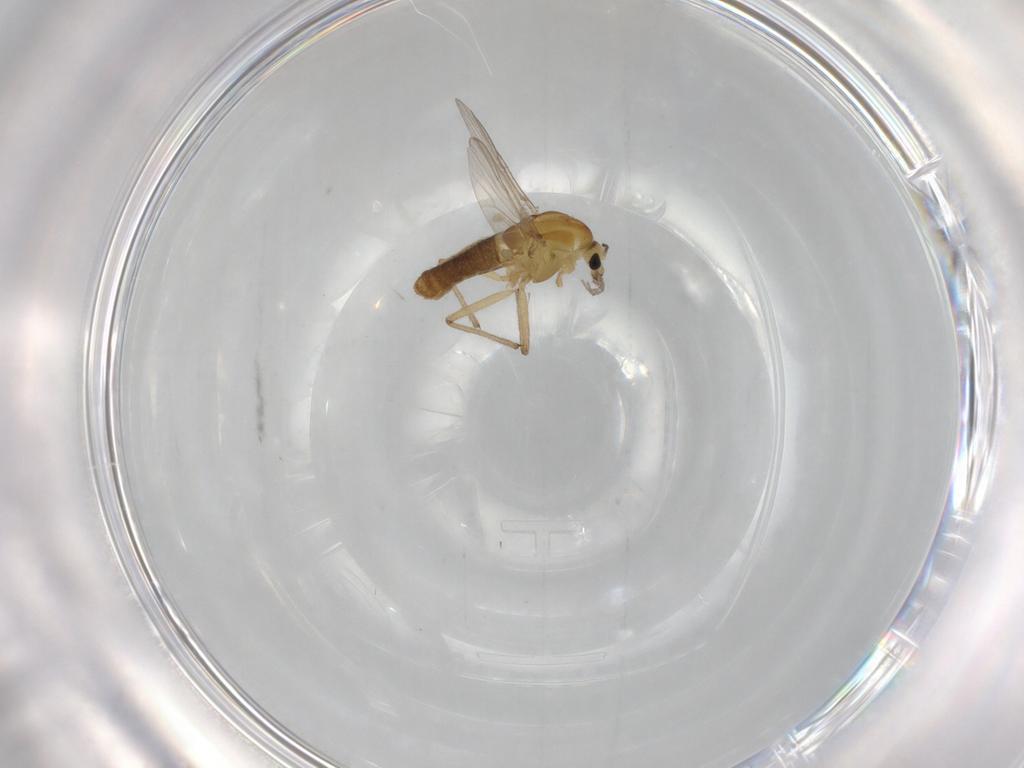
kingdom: Animalia
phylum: Arthropoda
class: Insecta
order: Diptera
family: Chironomidae
